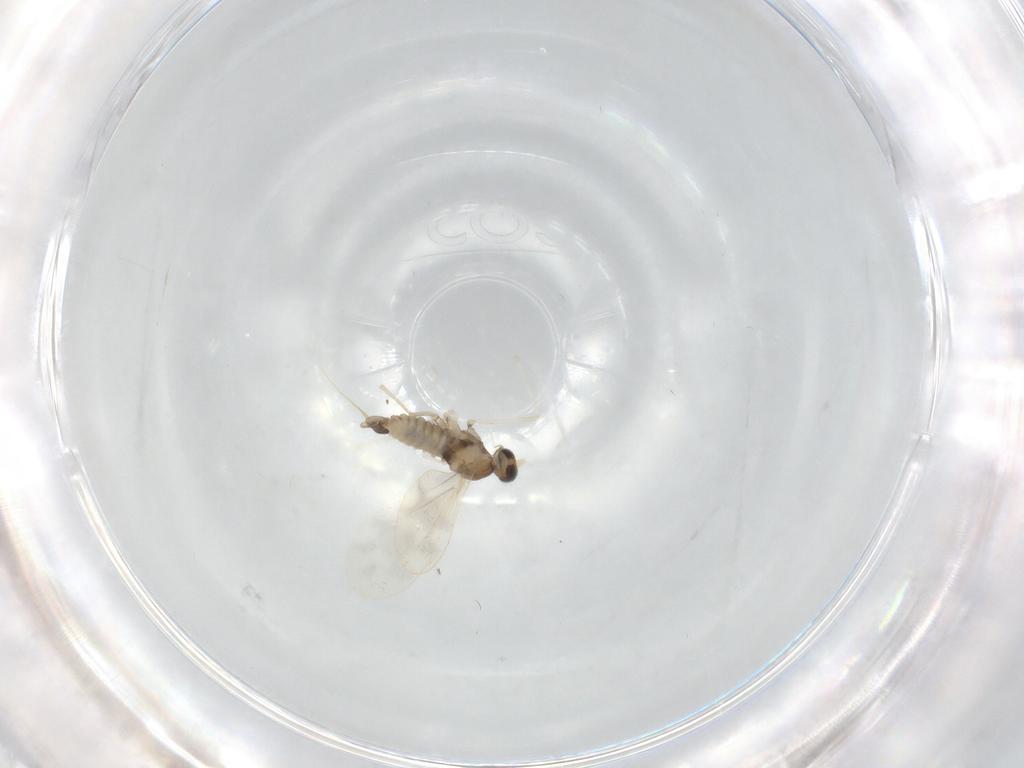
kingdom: Animalia
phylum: Arthropoda
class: Insecta
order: Diptera
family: Cecidomyiidae
